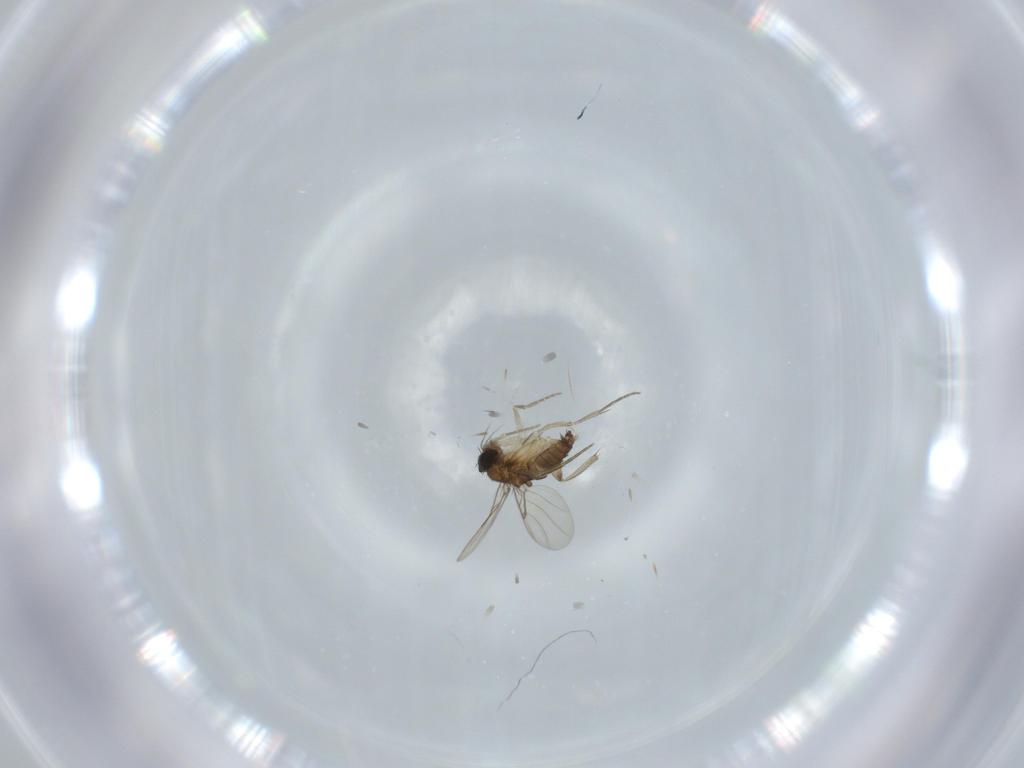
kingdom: Animalia
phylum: Arthropoda
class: Insecta
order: Diptera
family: Phoridae
